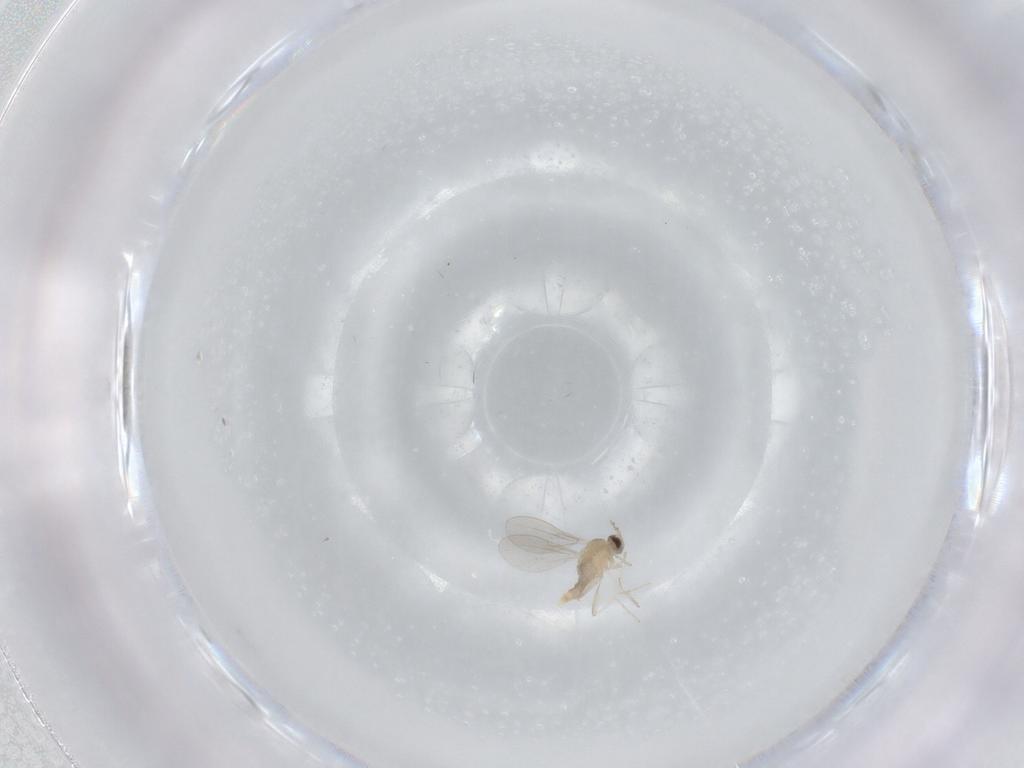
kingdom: Animalia
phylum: Arthropoda
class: Insecta
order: Diptera
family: Cecidomyiidae
